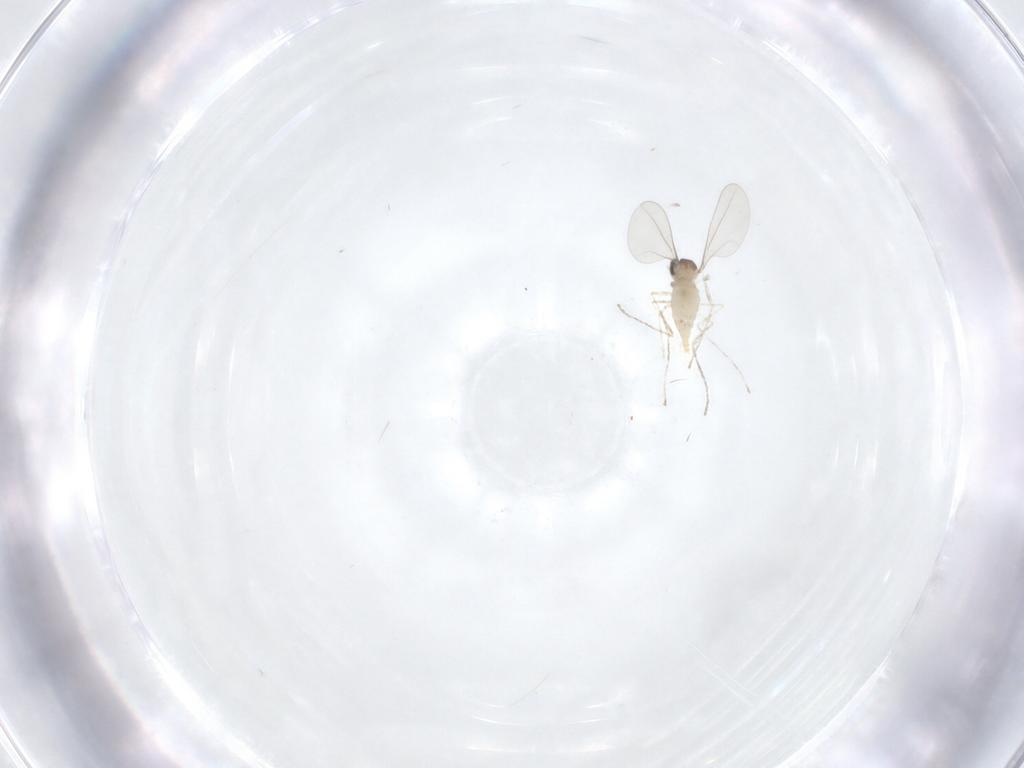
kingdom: Animalia
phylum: Arthropoda
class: Insecta
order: Diptera
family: Cecidomyiidae
